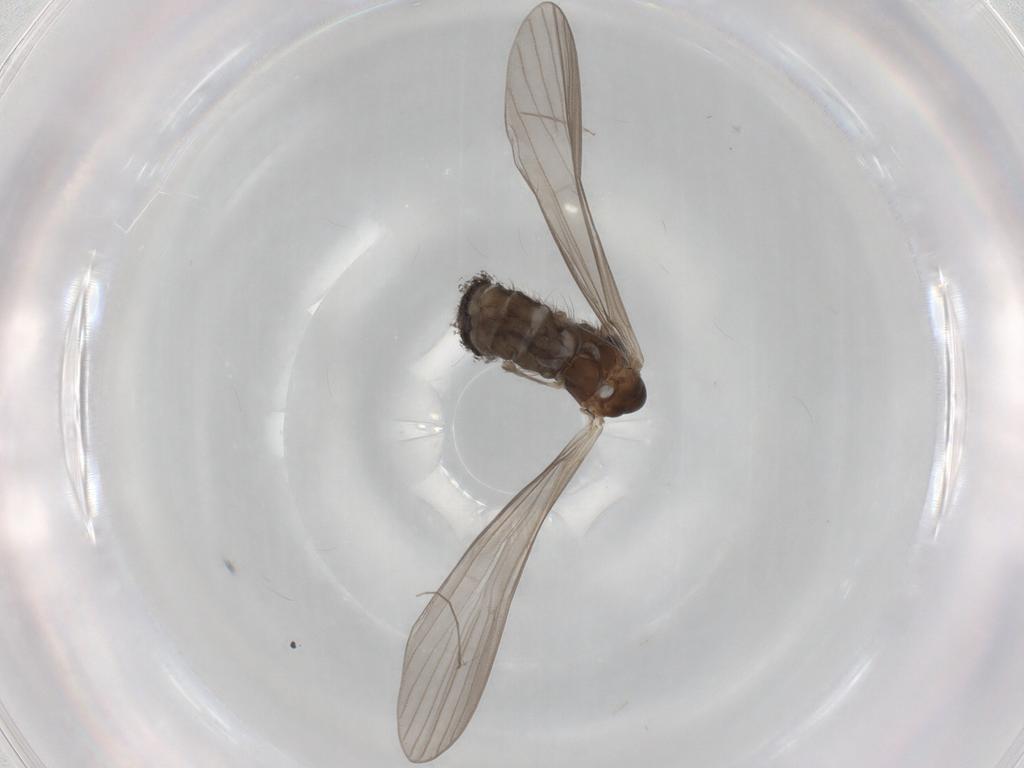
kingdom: Animalia
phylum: Arthropoda
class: Insecta
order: Diptera
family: Limoniidae
